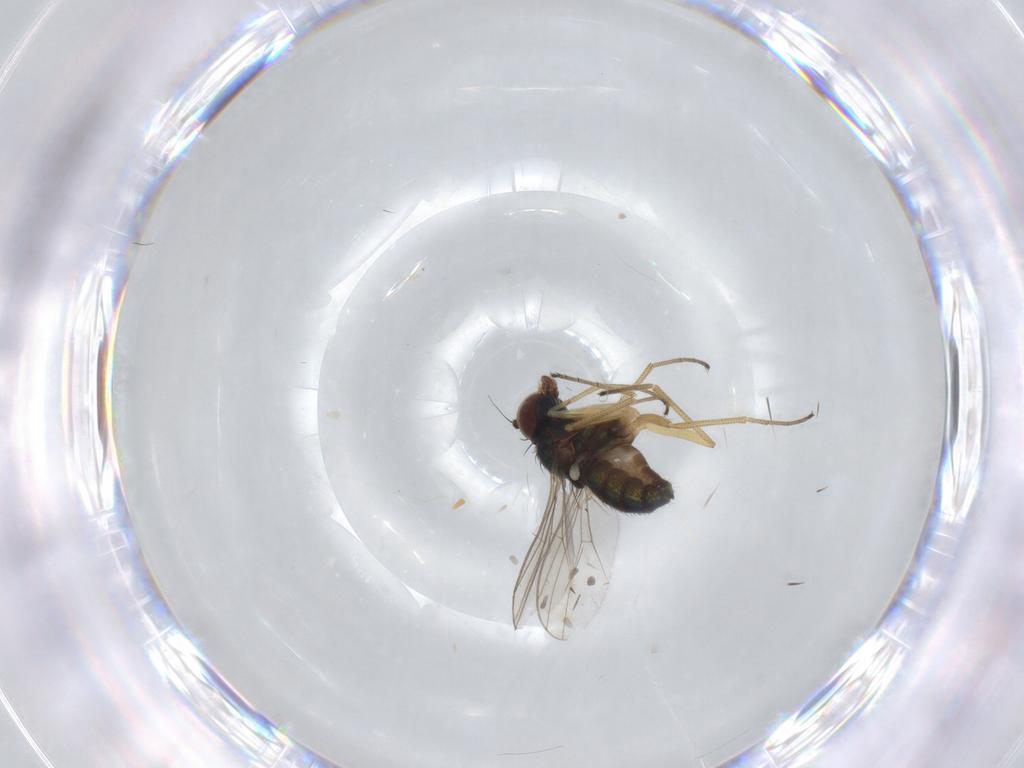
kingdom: Animalia
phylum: Arthropoda
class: Insecta
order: Diptera
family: Dolichopodidae
